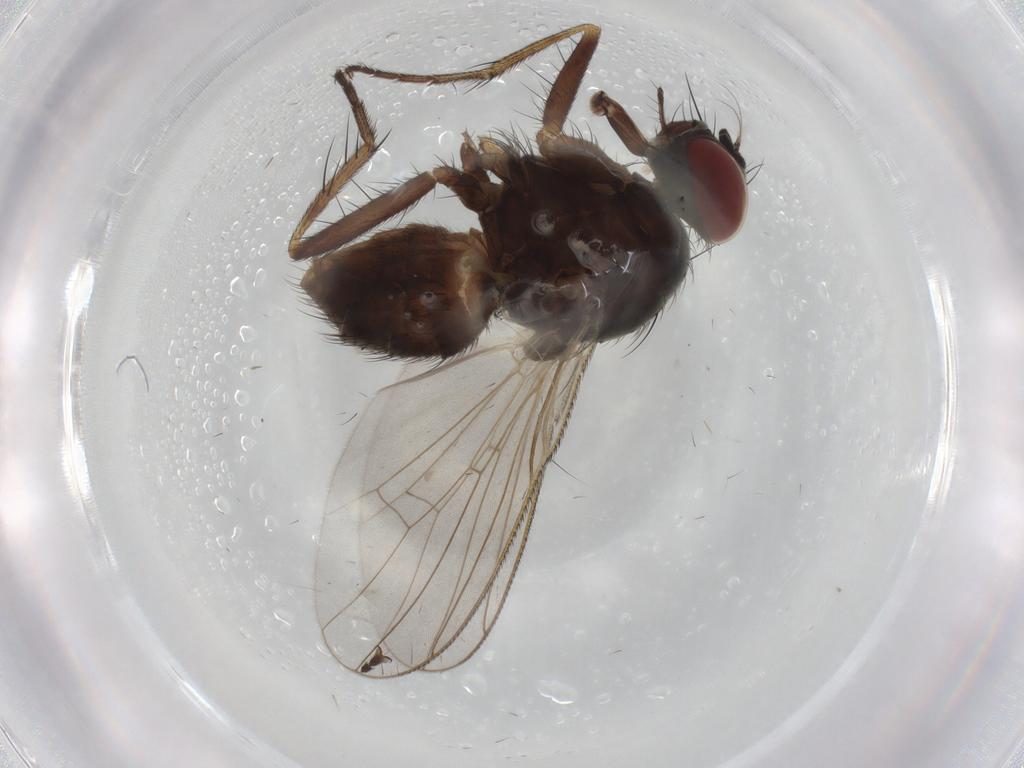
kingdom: Animalia
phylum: Arthropoda
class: Insecta
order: Diptera
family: Muscidae
